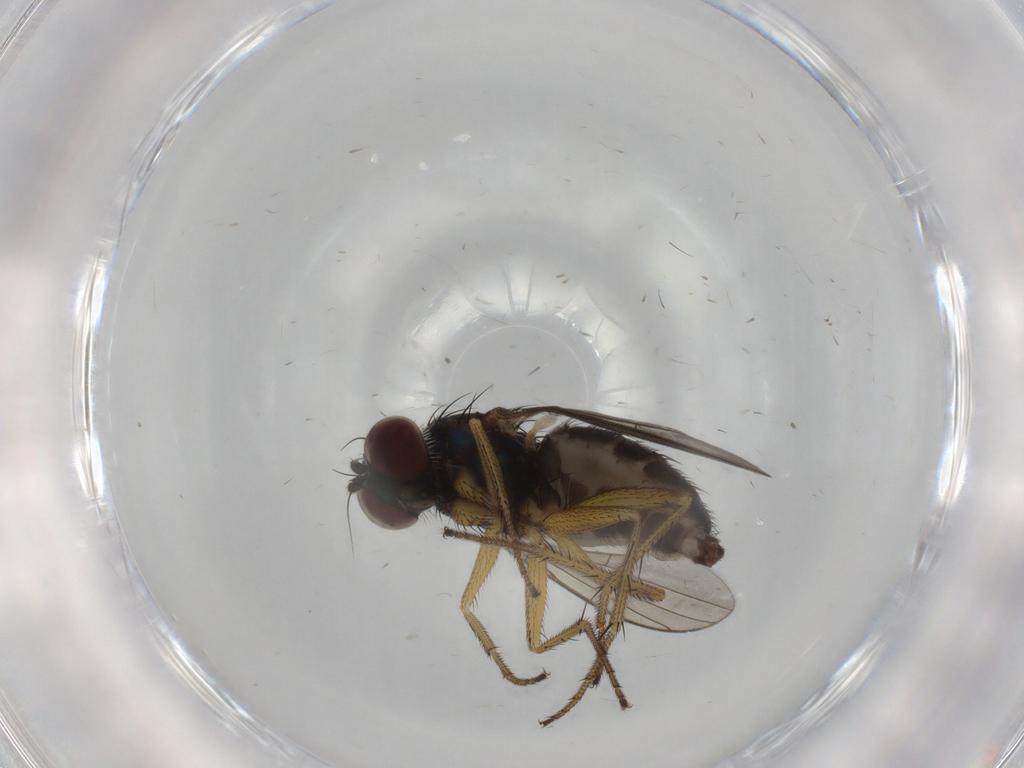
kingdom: Animalia
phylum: Arthropoda
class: Insecta
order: Diptera
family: Dolichopodidae
